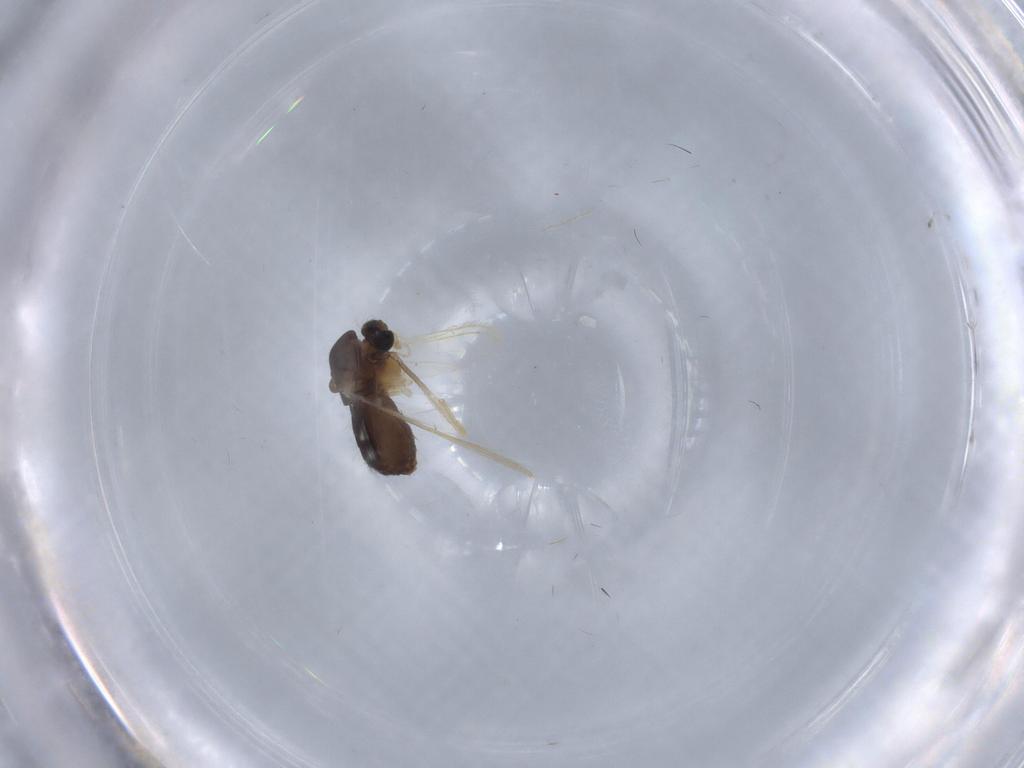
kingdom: Animalia
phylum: Arthropoda
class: Insecta
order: Diptera
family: Chironomidae
